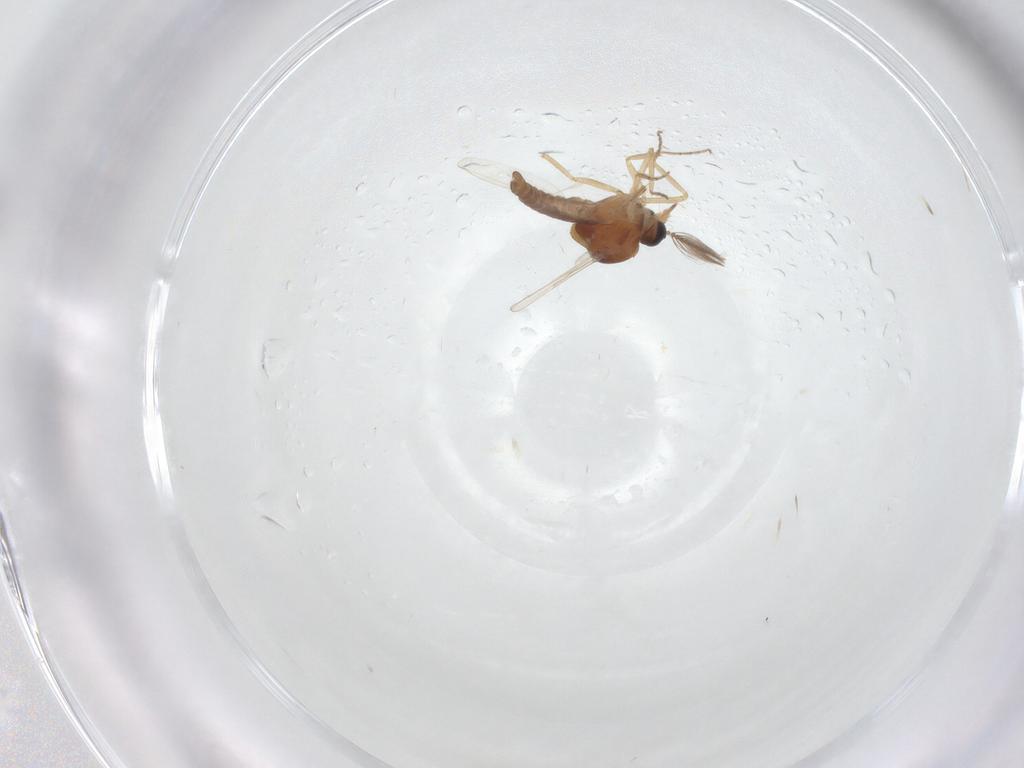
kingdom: Animalia
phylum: Arthropoda
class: Insecta
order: Diptera
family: Ceratopogonidae
